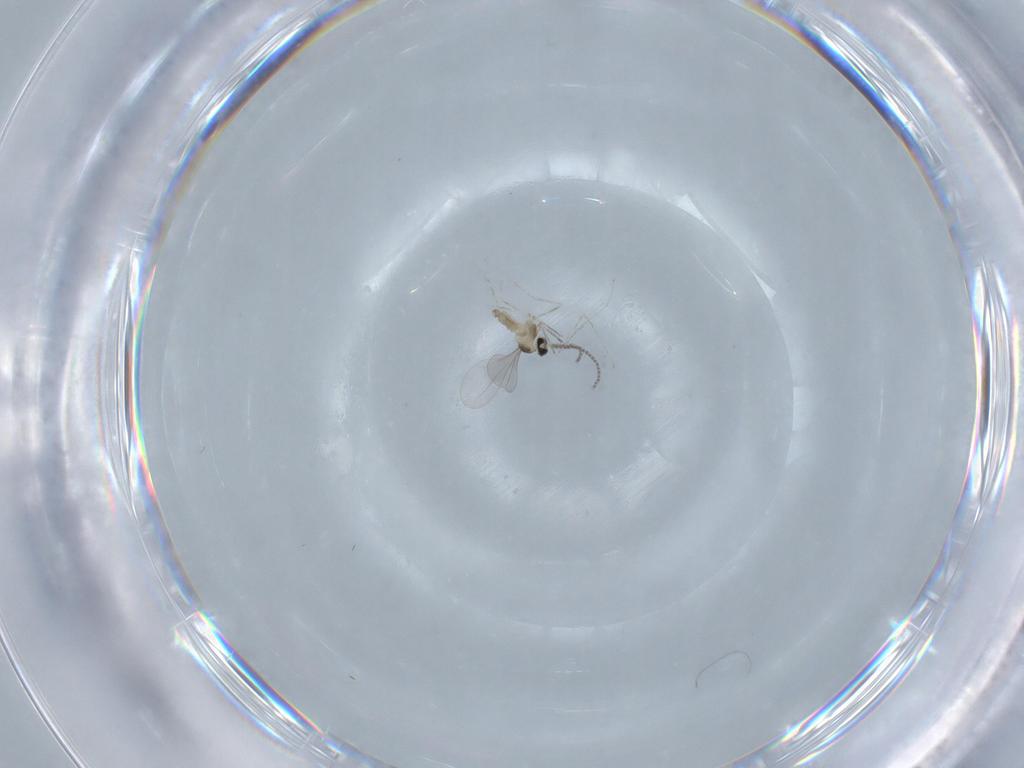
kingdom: Animalia
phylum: Arthropoda
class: Insecta
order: Diptera
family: Cecidomyiidae
